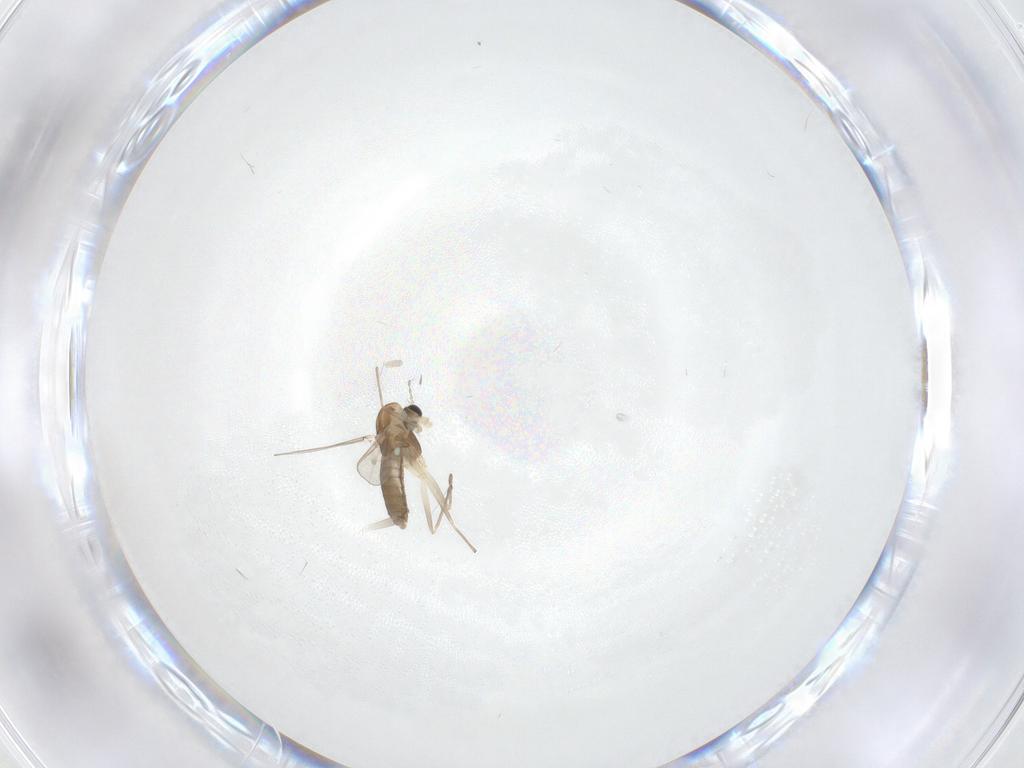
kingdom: Animalia
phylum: Arthropoda
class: Insecta
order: Diptera
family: Chironomidae
